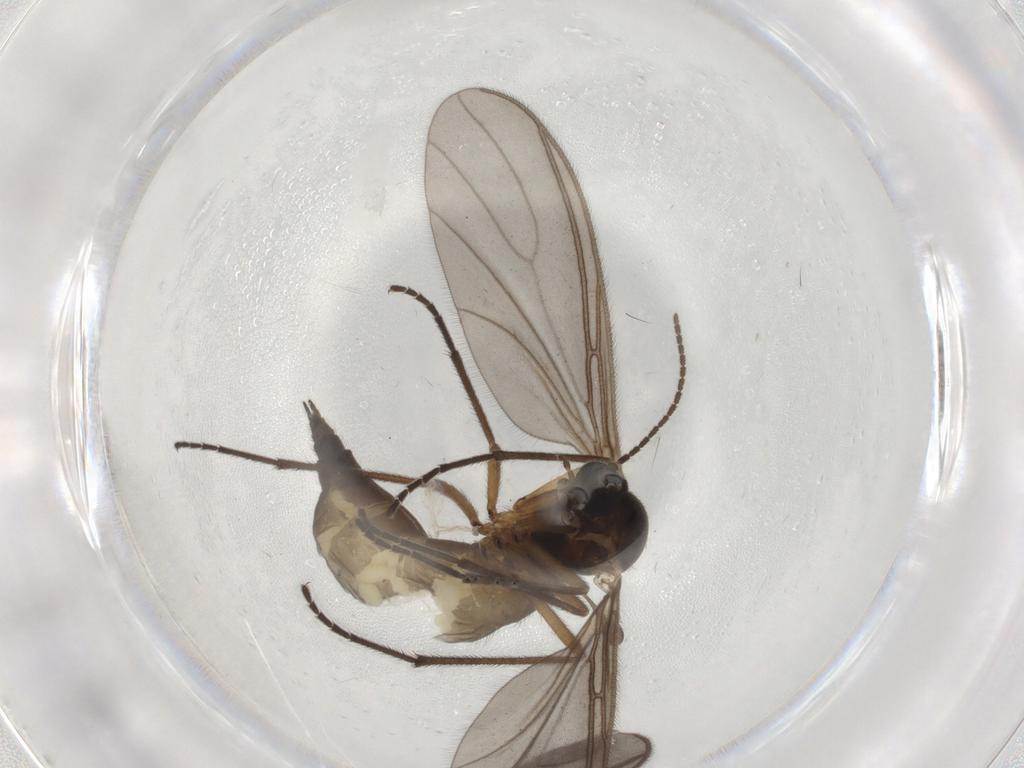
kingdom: Animalia
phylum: Arthropoda
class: Insecta
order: Diptera
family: Sciaridae
